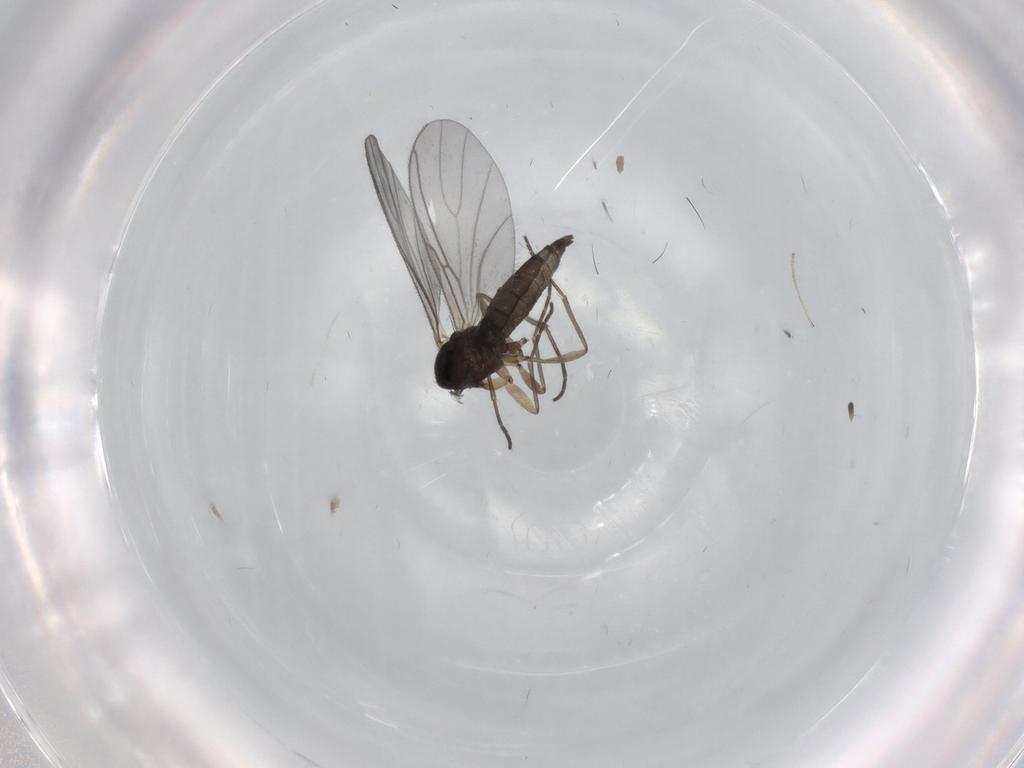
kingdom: Animalia
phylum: Arthropoda
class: Insecta
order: Diptera
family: Sciaridae
